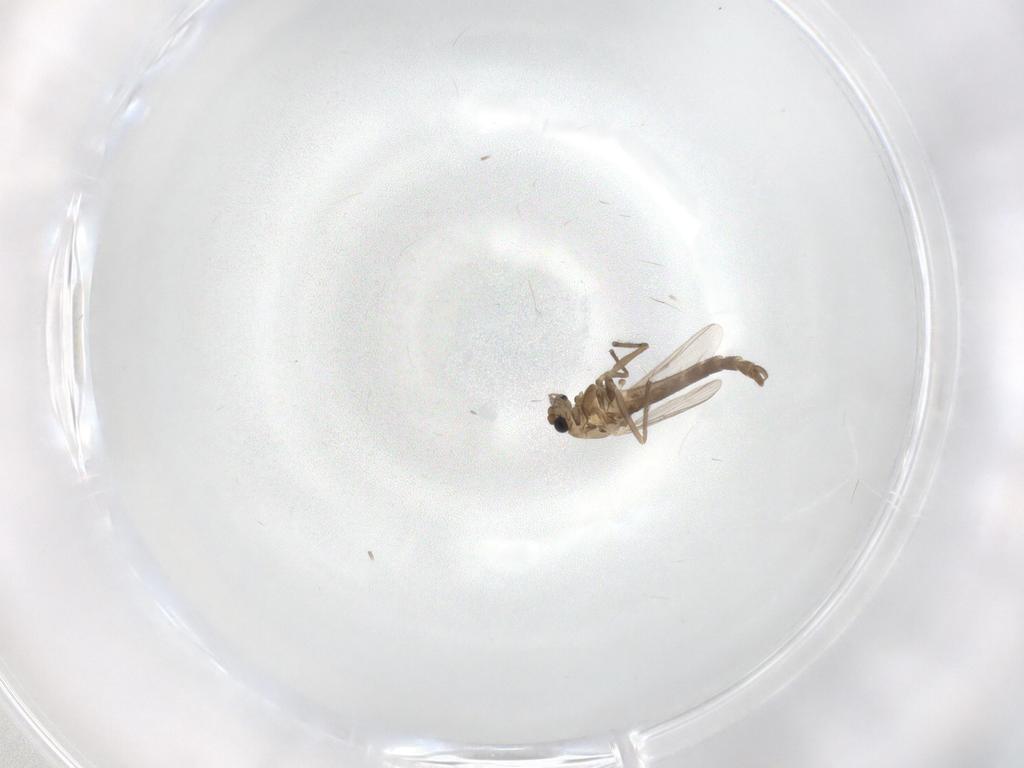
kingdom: Animalia
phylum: Arthropoda
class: Insecta
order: Diptera
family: Chironomidae
